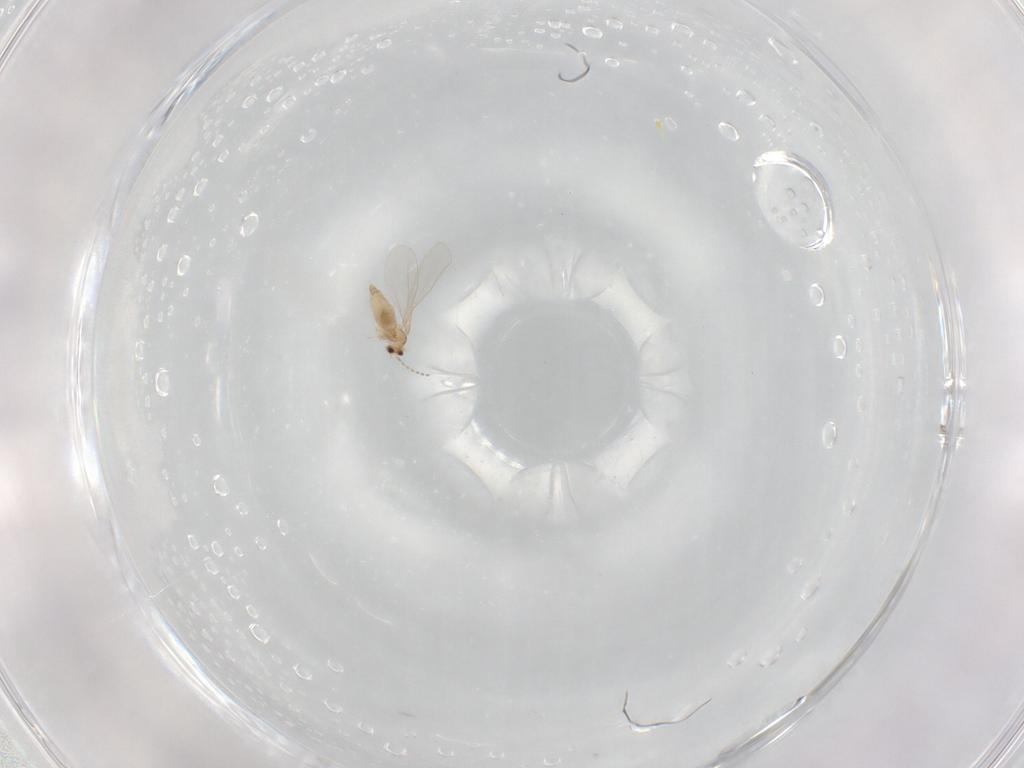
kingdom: Animalia
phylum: Arthropoda
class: Insecta
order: Diptera
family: Cecidomyiidae
